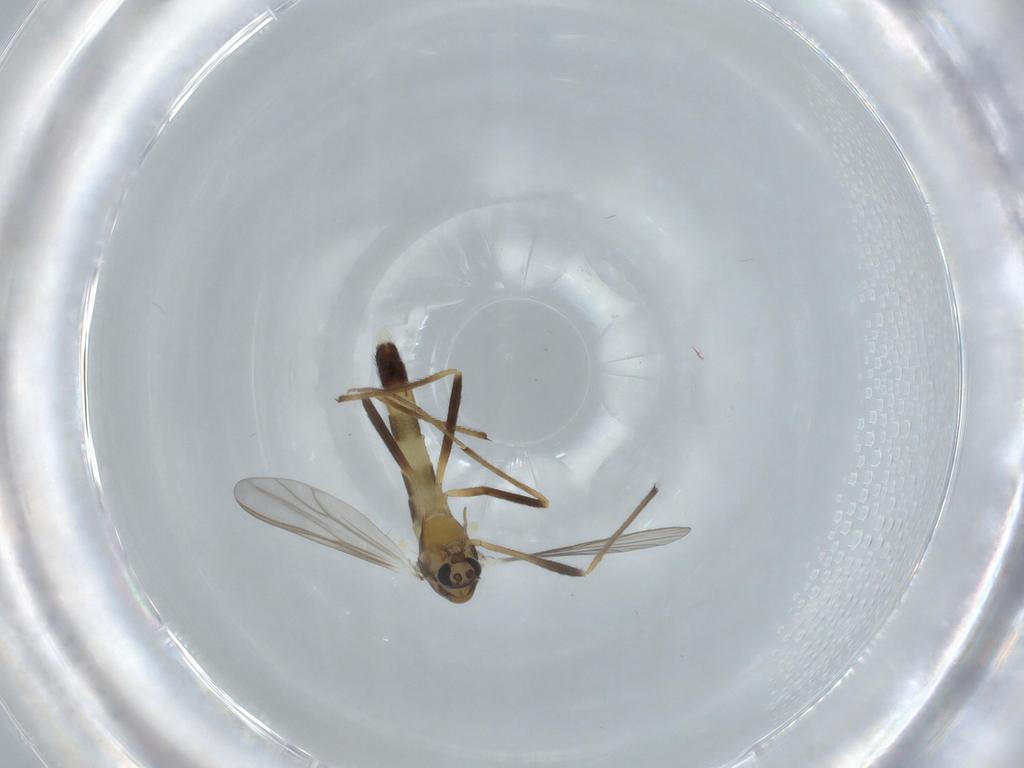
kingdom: Animalia
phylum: Arthropoda
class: Insecta
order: Diptera
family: Chironomidae
